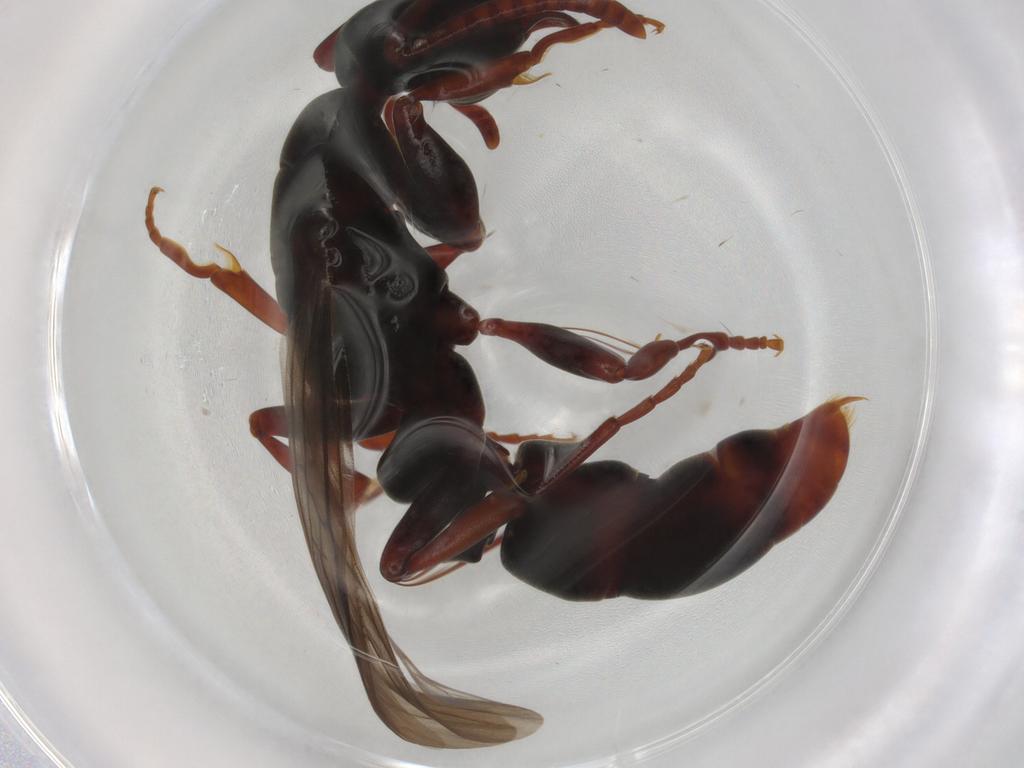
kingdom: Animalia
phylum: Arthropoda
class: Insecta
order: Hymenoptera
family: Formicidae
